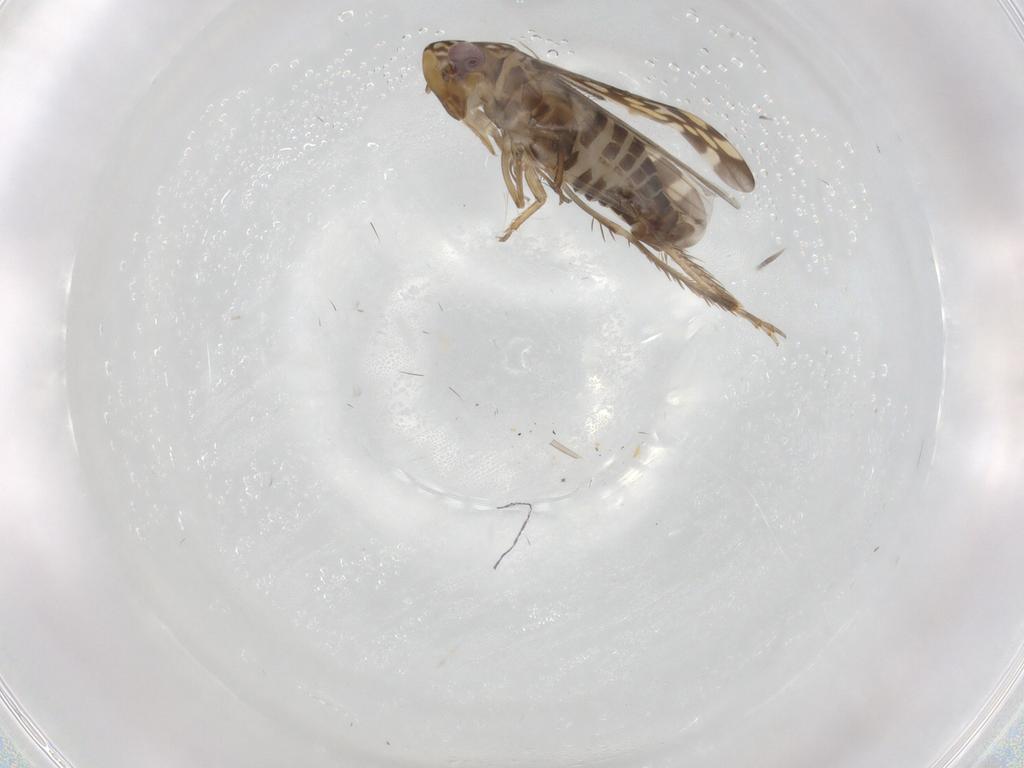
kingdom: Animalia
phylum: Arthropoda
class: Insecta
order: Hemiptera
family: Cicadellidae
